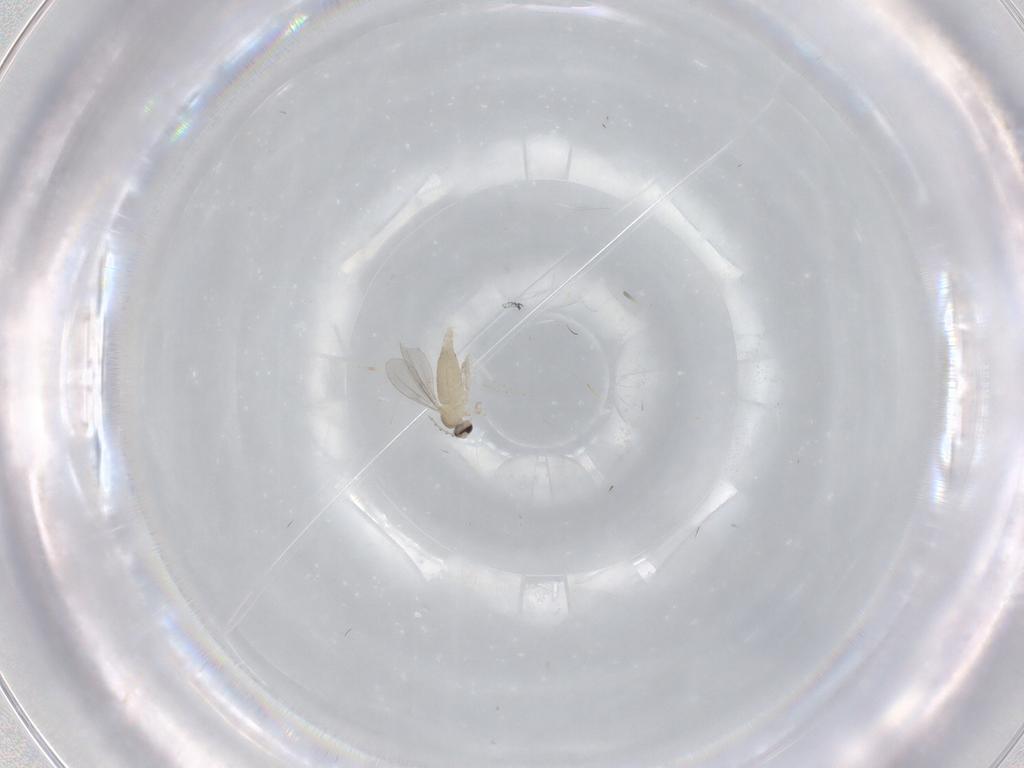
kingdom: Animalia
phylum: Arthropoda
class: Insecta
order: Diptera
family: Cecidomyiidae
